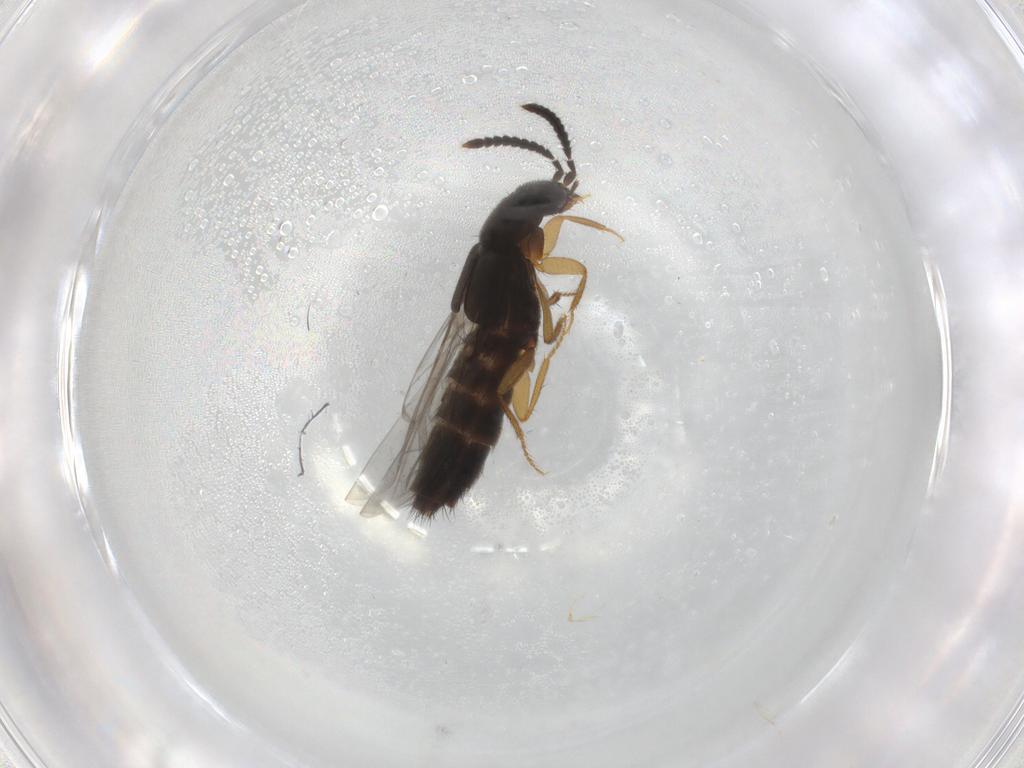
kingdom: Animalia
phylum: Arthropoda
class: Insecta
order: Coleoptera
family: Staphylinidae
